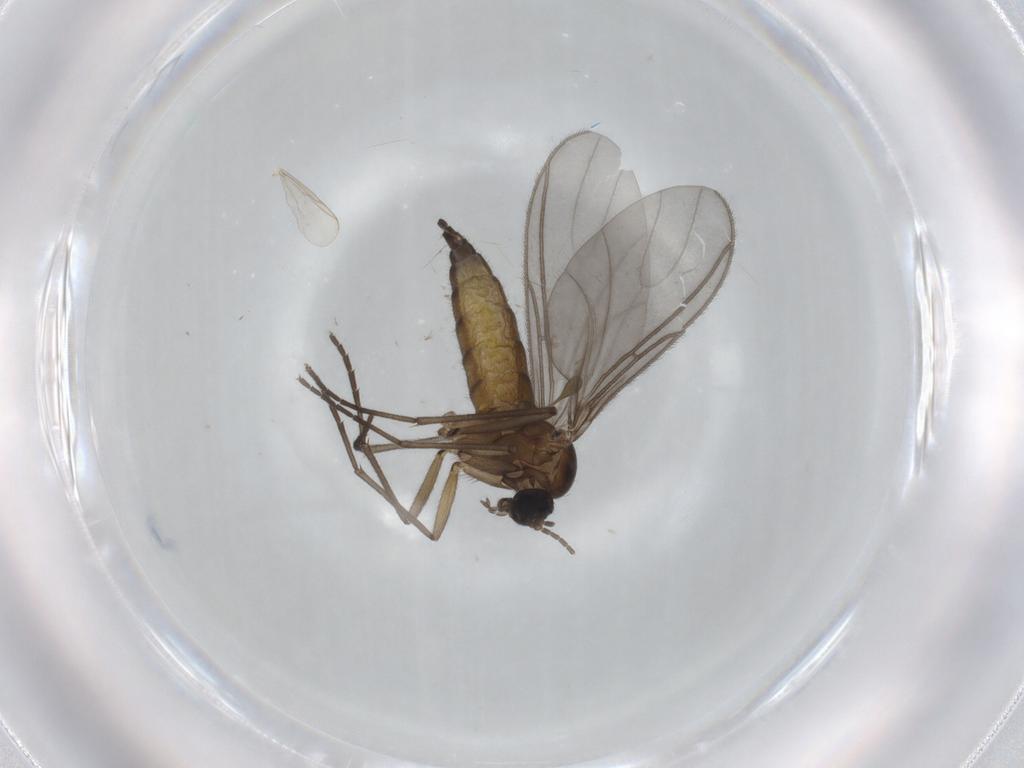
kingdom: Animalia
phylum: Arthropoda
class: Insecta
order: Diptera
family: Sciaridae
